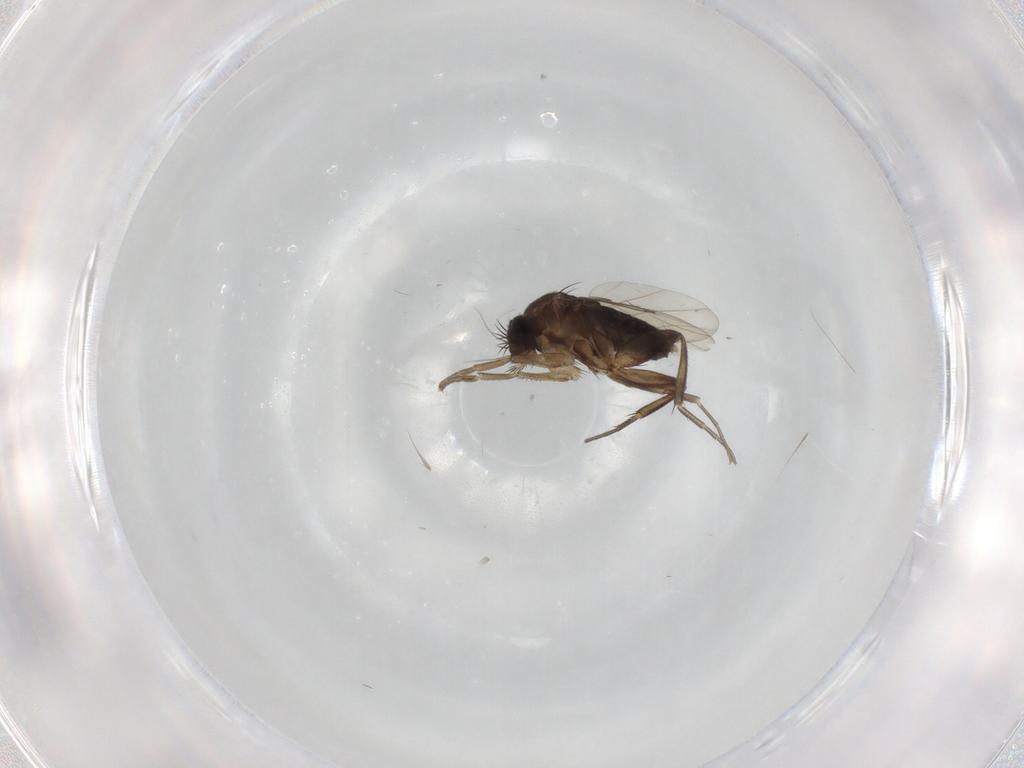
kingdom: Animalia
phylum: Arthropoda
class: Insecta
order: Diptera
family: Phoridae
